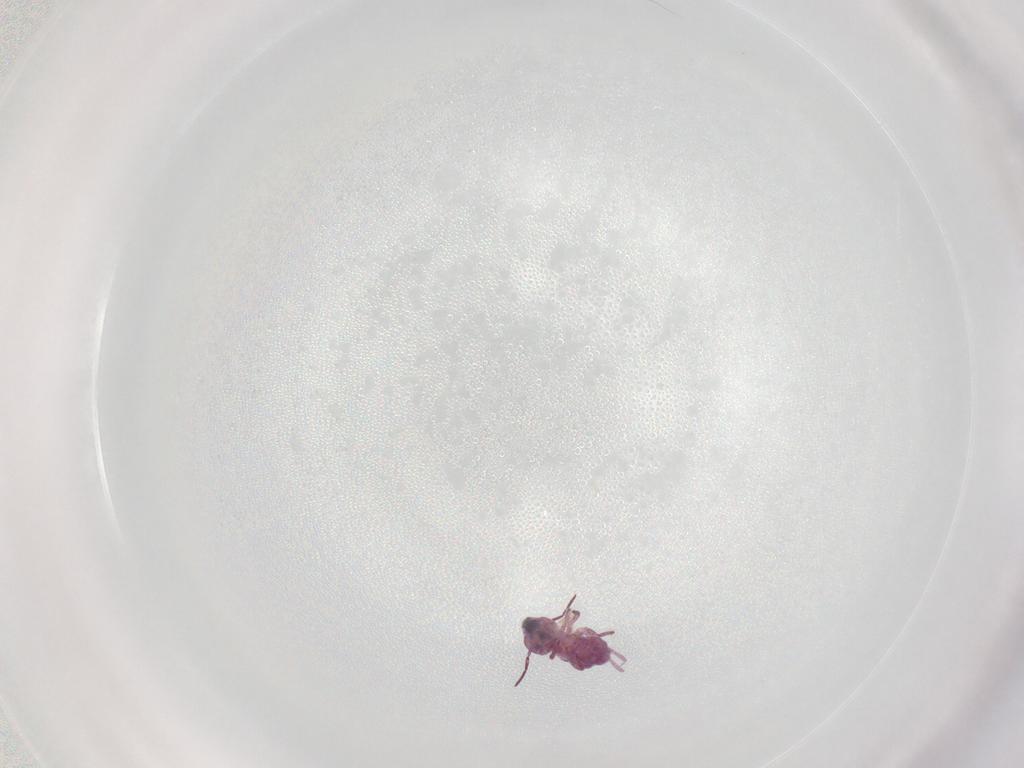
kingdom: Animalia
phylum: Arthropoda
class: Collembola
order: Symphypleona
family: Sminthurididae
